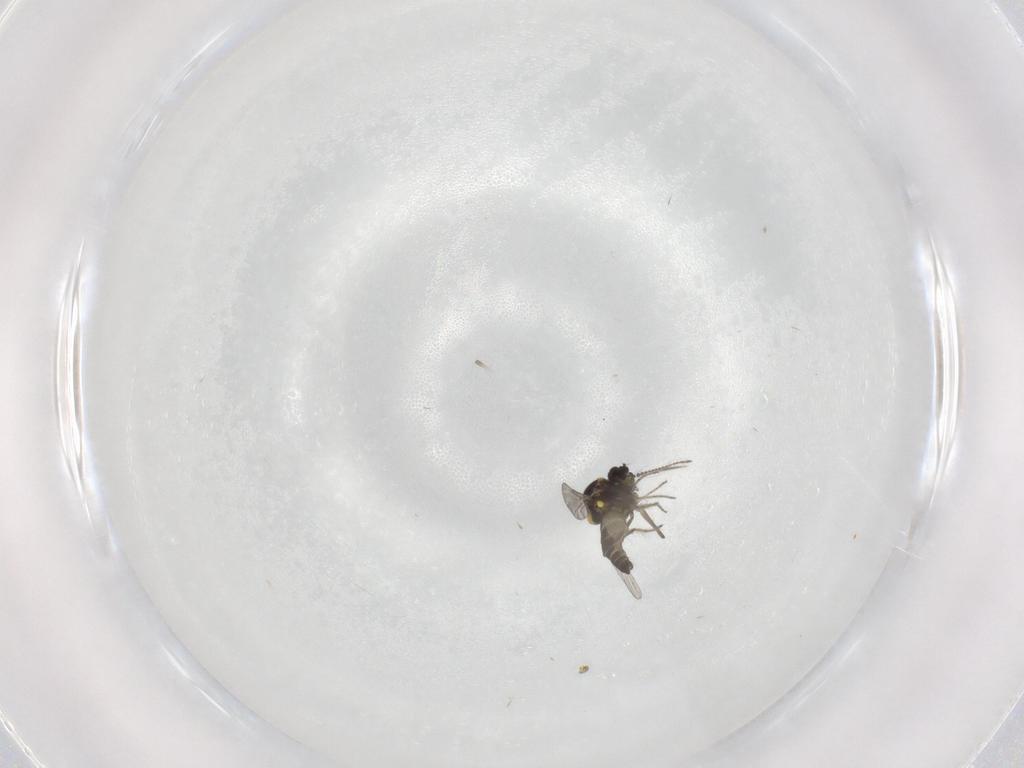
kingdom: Animalia
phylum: Arthropoda
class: Insecta
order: Diptera
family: Ceratopogonidae
